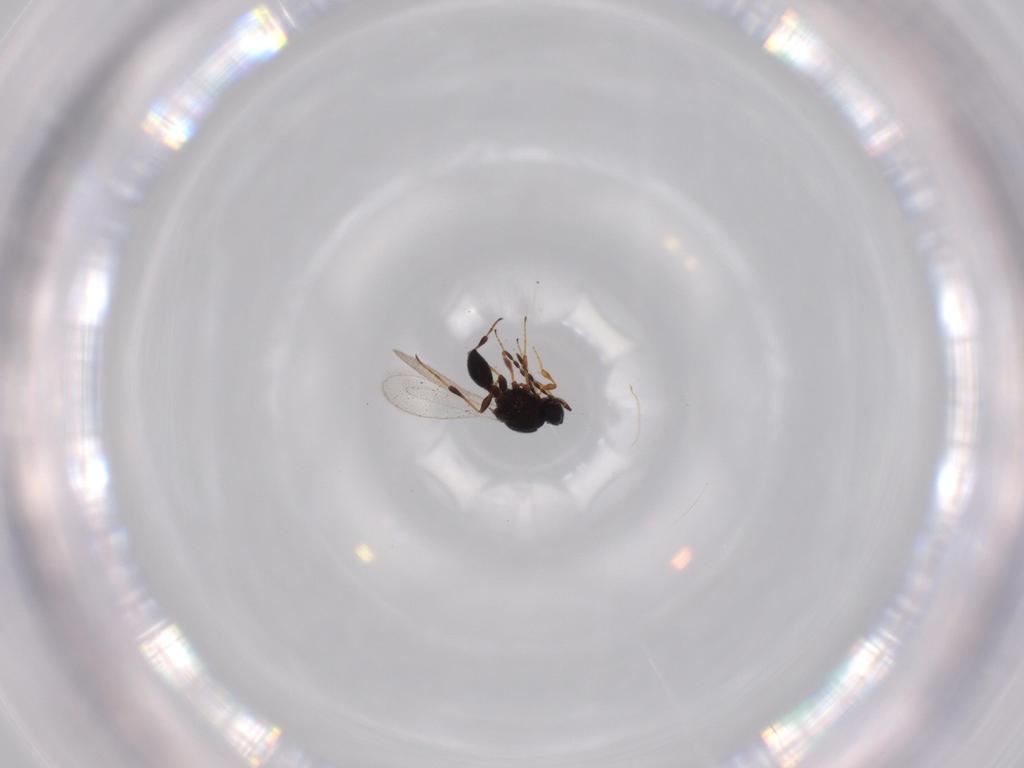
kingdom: Animalia
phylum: Arthropoda
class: Insecta
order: Hymenoptera
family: Platygastridae
